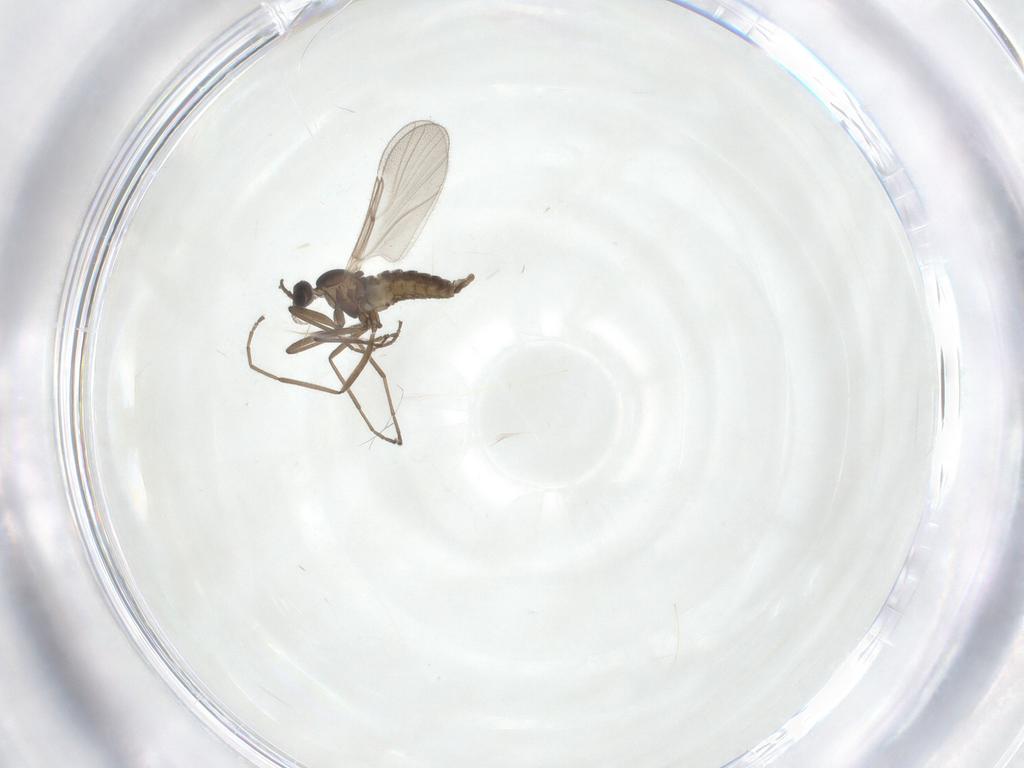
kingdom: Animalia
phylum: Arthropoda
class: Insecta
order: Diptera
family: Cecidomyiidae
